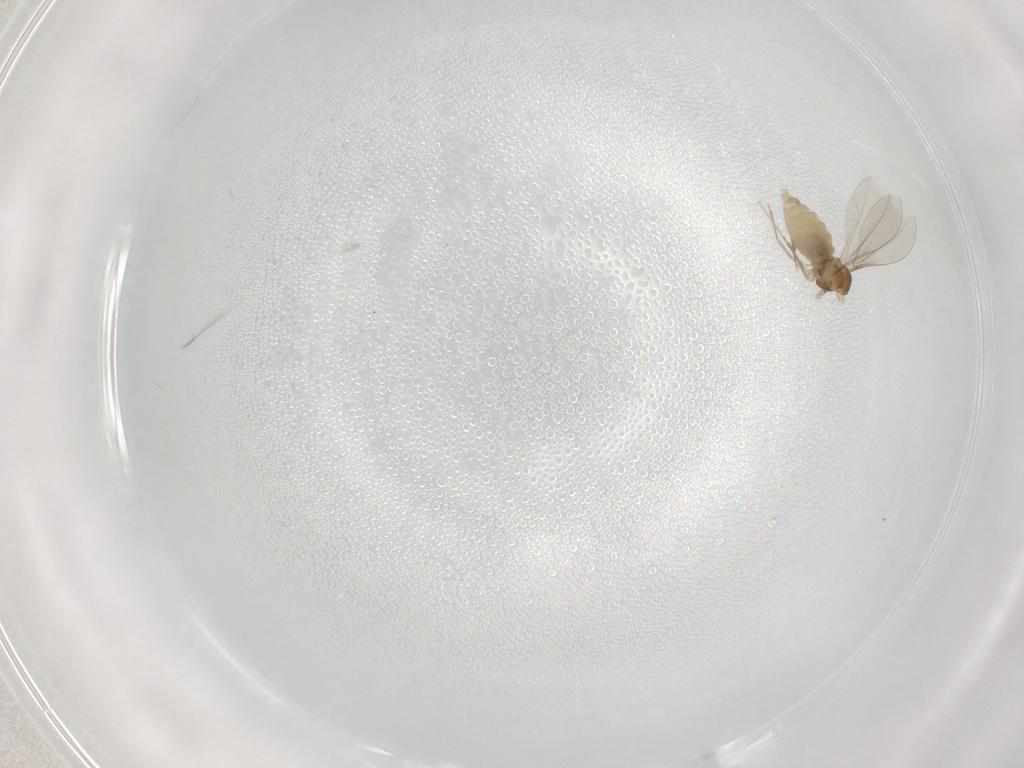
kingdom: Animalia
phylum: Arthropoda
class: Insecta
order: Diptera
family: Cecidomyiidae
